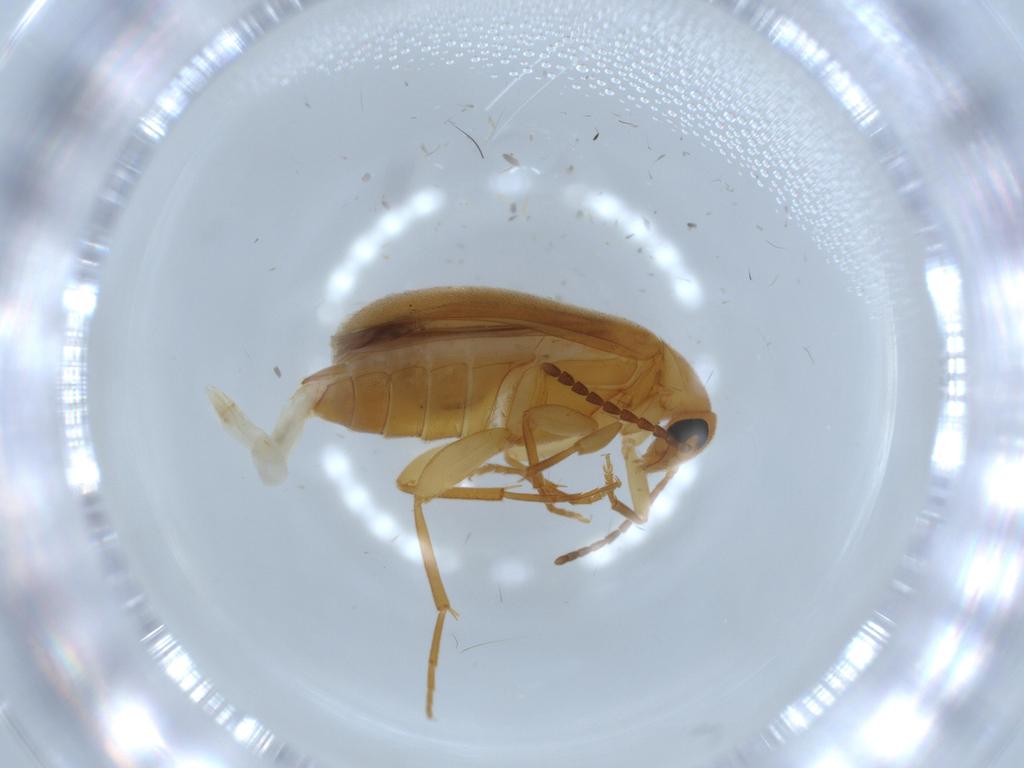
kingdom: Animalia
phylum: Arthropoda
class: Insecta
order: Coleoptera
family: Scraptiidae
